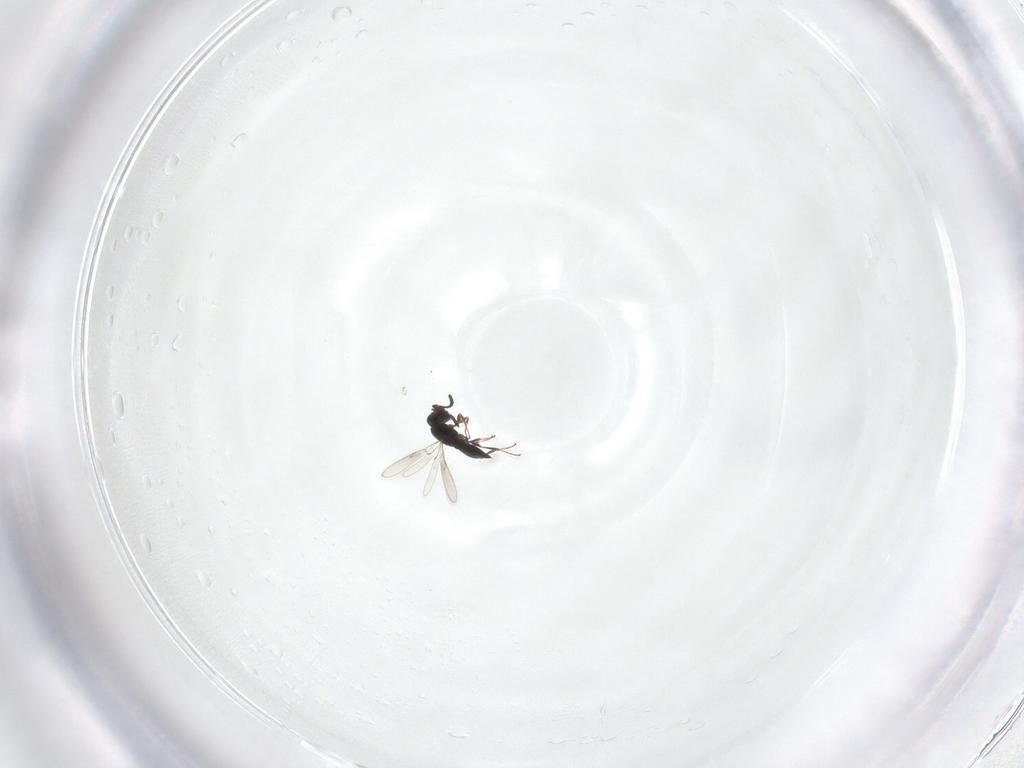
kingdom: Animalia
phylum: Arthropoda
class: Insecta
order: Hymenoptera
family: Scelionidae
